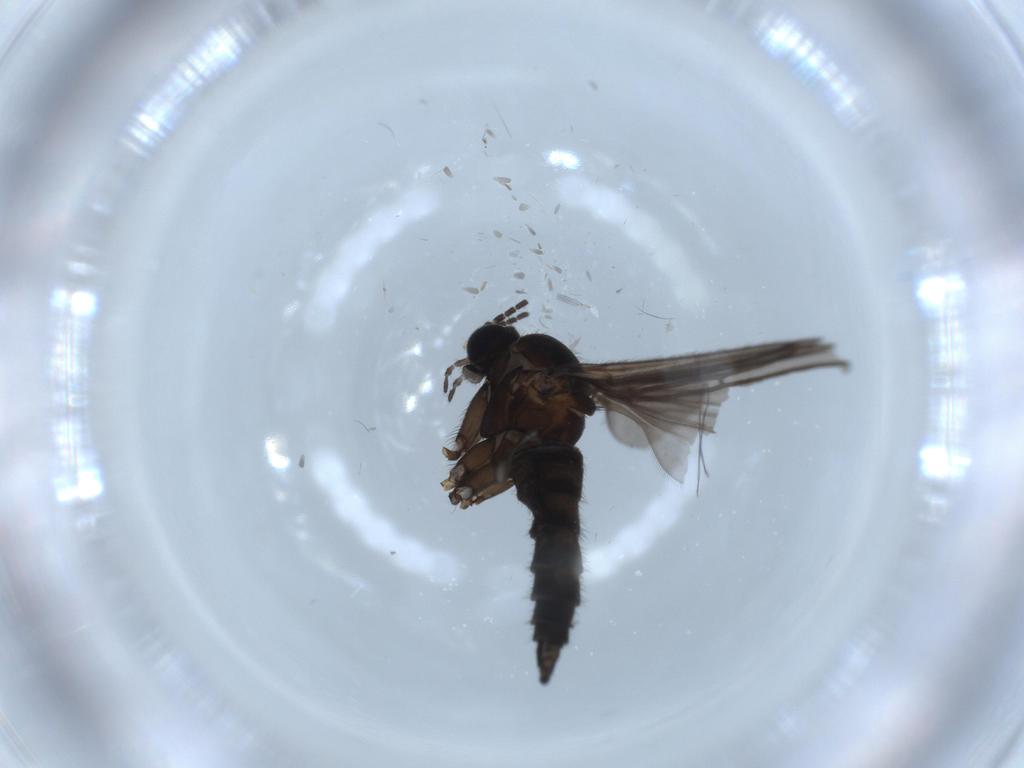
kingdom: Animalia
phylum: Arthropoda
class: Insecta
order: Diptera
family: Sciaridae
